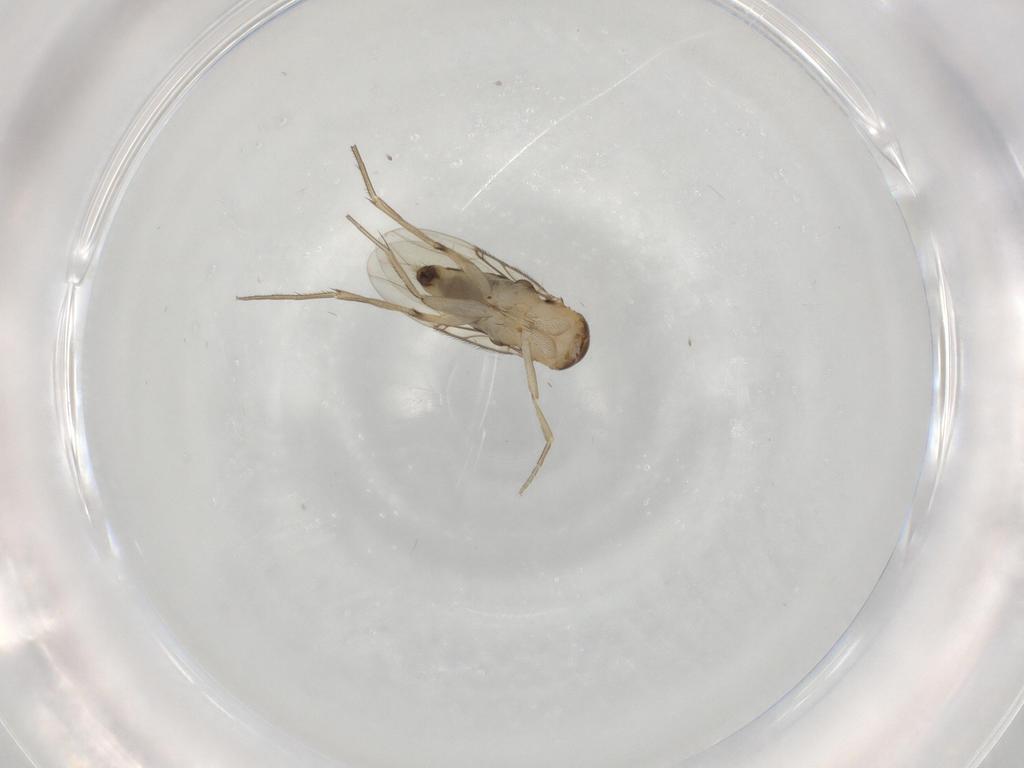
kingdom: Animalia
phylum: Arthropoda
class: Insecta
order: Diptera
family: Phoridae
